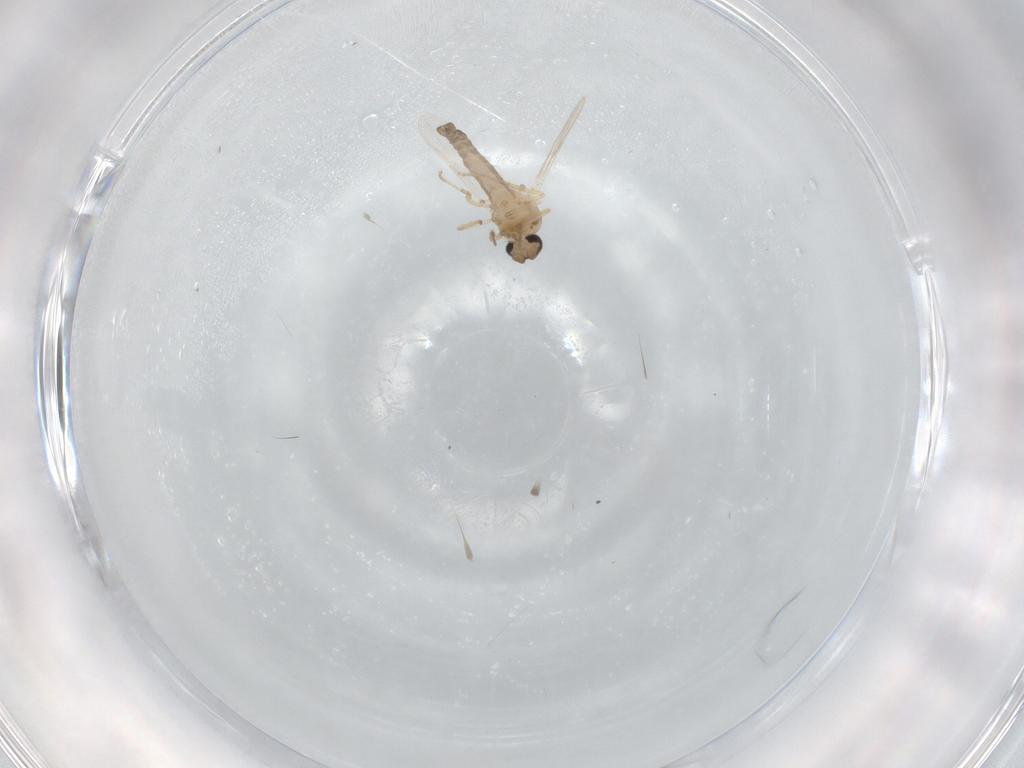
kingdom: Animalia
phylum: Arthropoda
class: Insecta
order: Diptera
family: Ceratopogonidae
